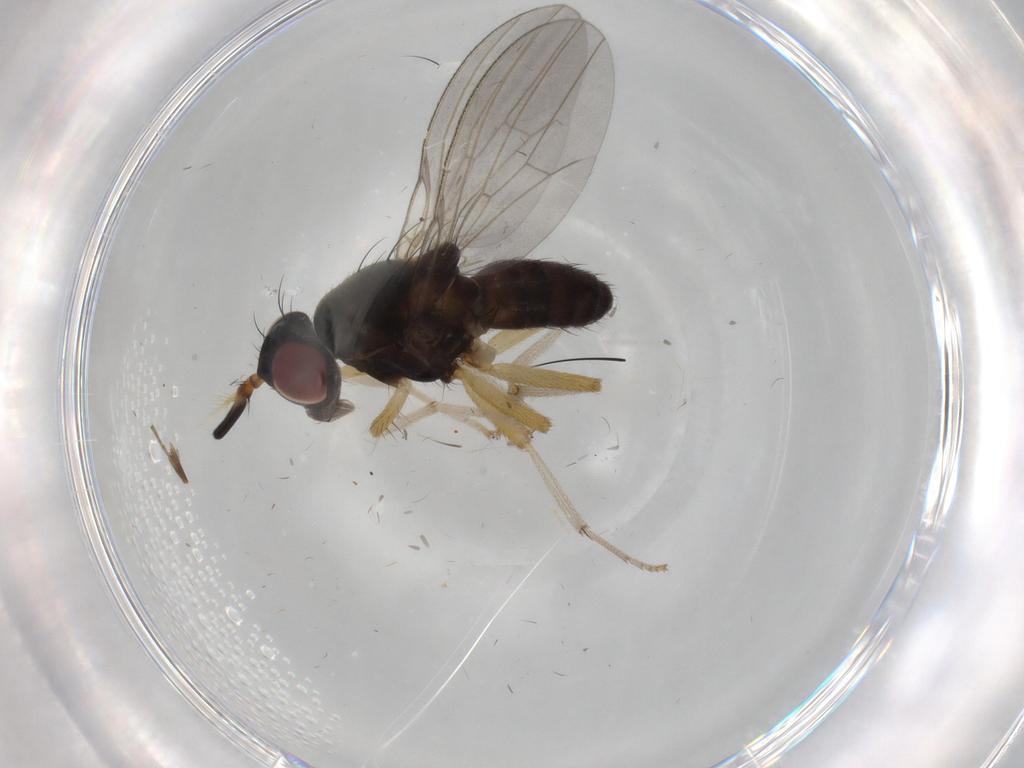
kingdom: Animalia
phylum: Arthropoda
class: Insecta
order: Diptera
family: Lauxaniidae
